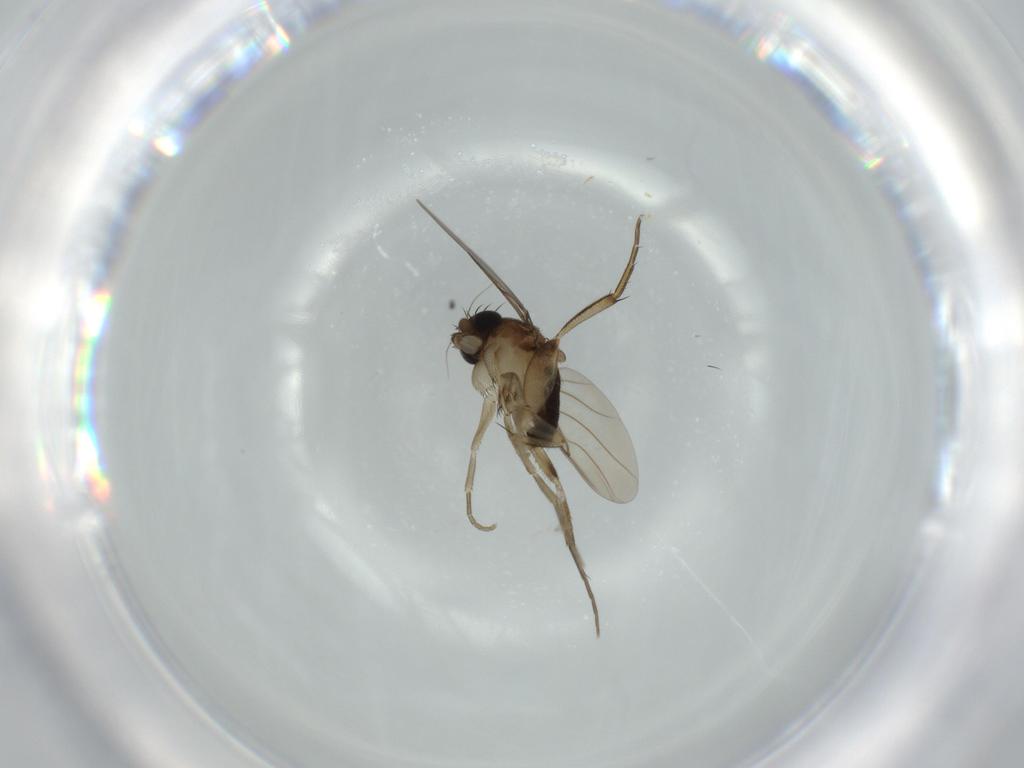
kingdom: Animalia
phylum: Arthropoda
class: Insecta
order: Diptera
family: Phoridae
